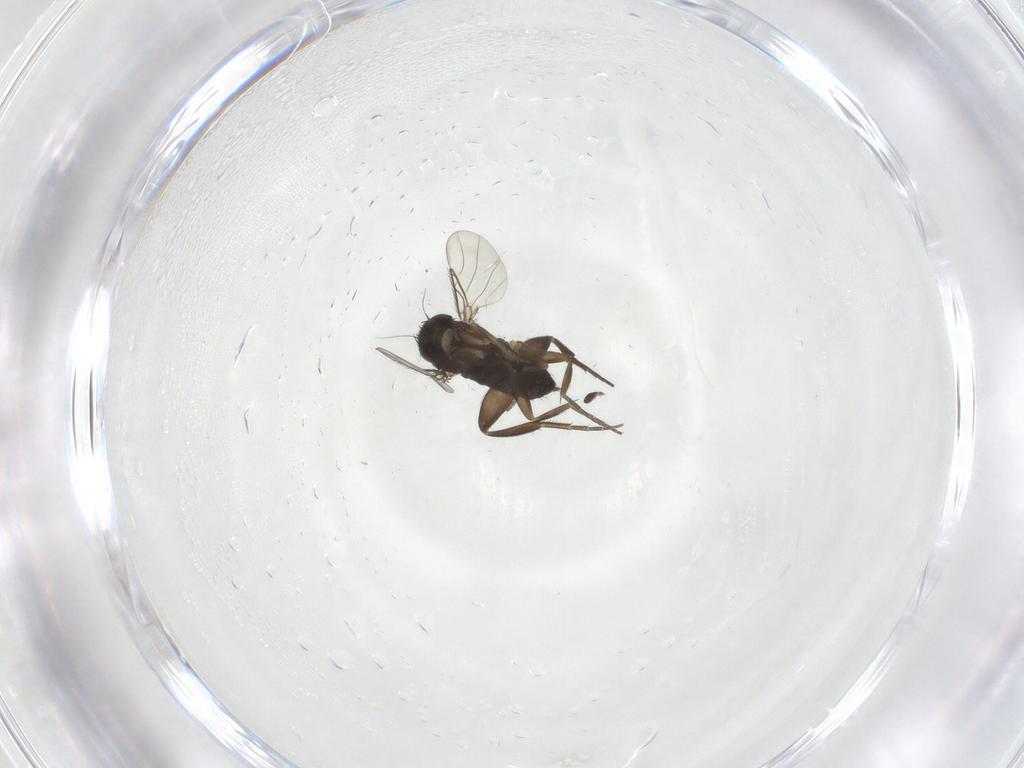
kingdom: Animalia
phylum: Arthropoda
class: Insecta
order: Diptera
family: Phoridae
